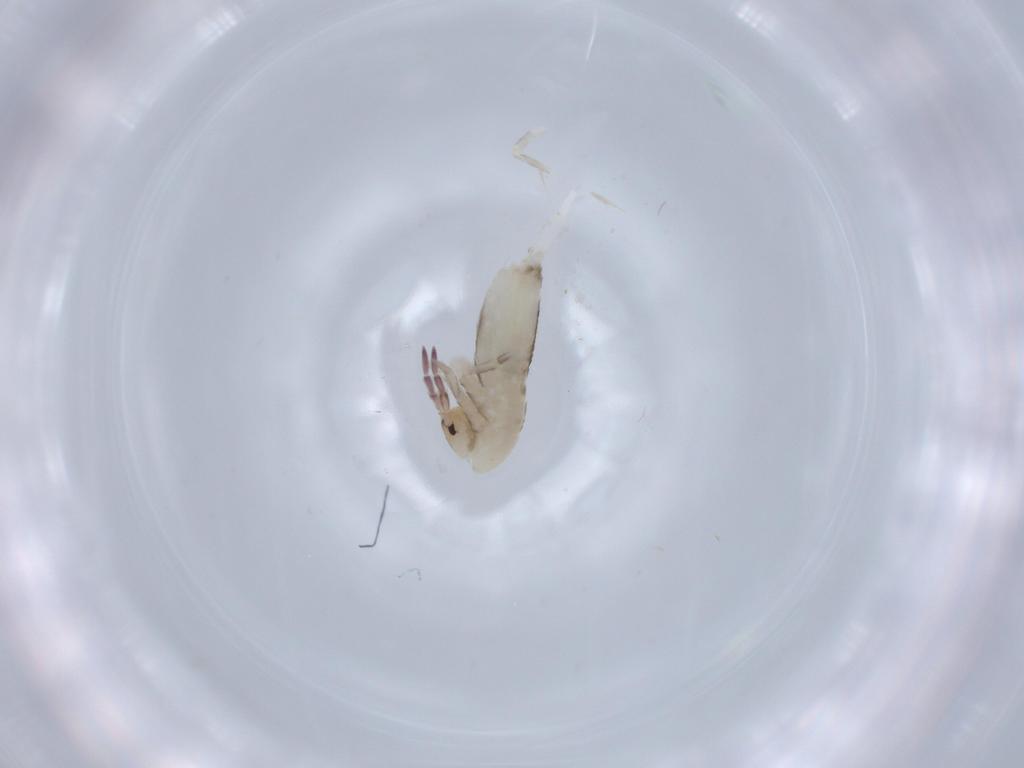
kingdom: Animalia
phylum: Arthropoda
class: Collembola
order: Entomobryomorpha
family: Entomobryidae
